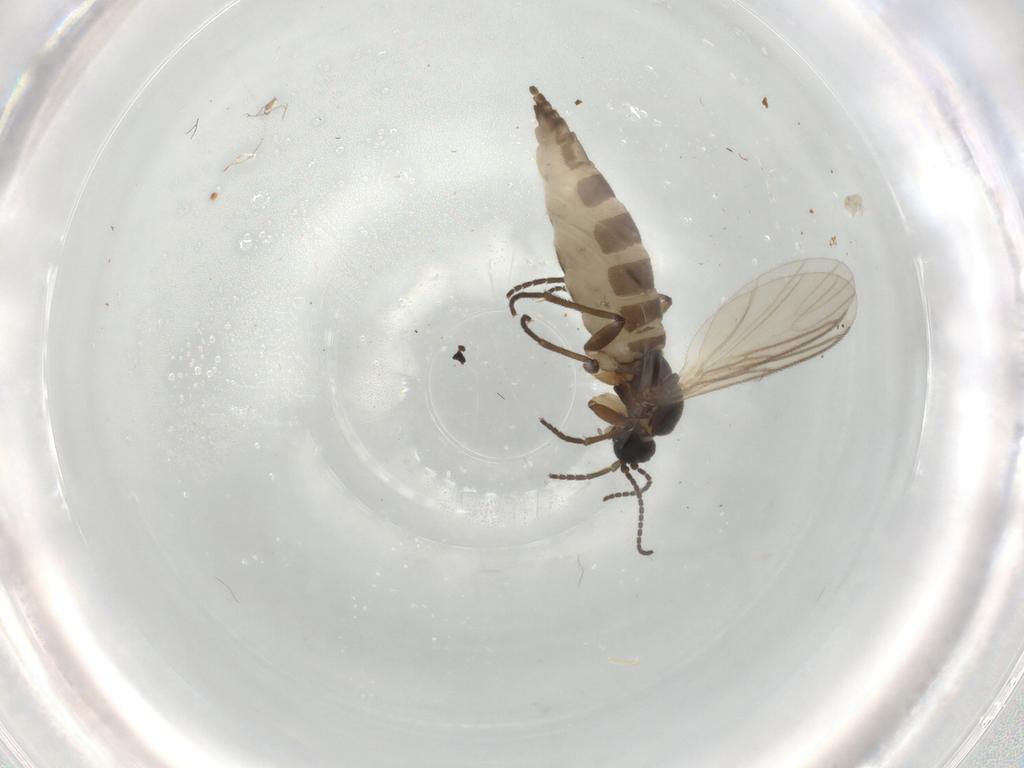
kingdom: Animalia
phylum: Arthropoda
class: Insecta
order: Diptera
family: Sciaridae
